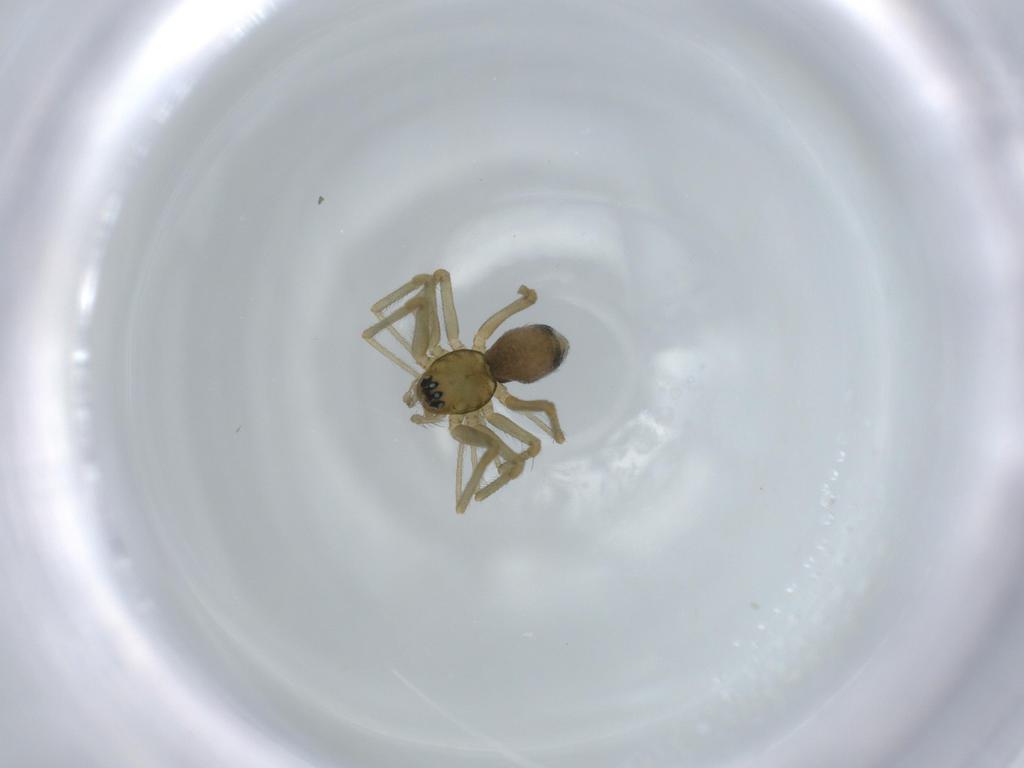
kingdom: Animalia
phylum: Arthropoda
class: Arachnida
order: Araneae
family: Linyphiidae
